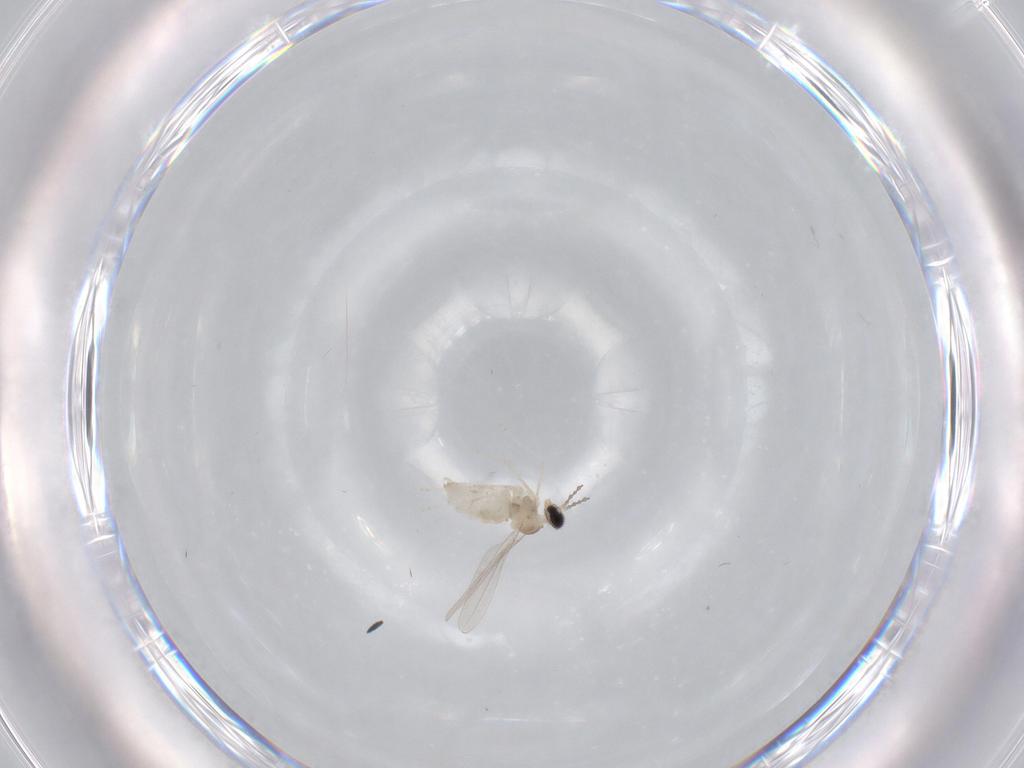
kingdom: Animalia
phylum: Arthropoda
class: Insecta
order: Diptera
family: Cecidomyiidae
